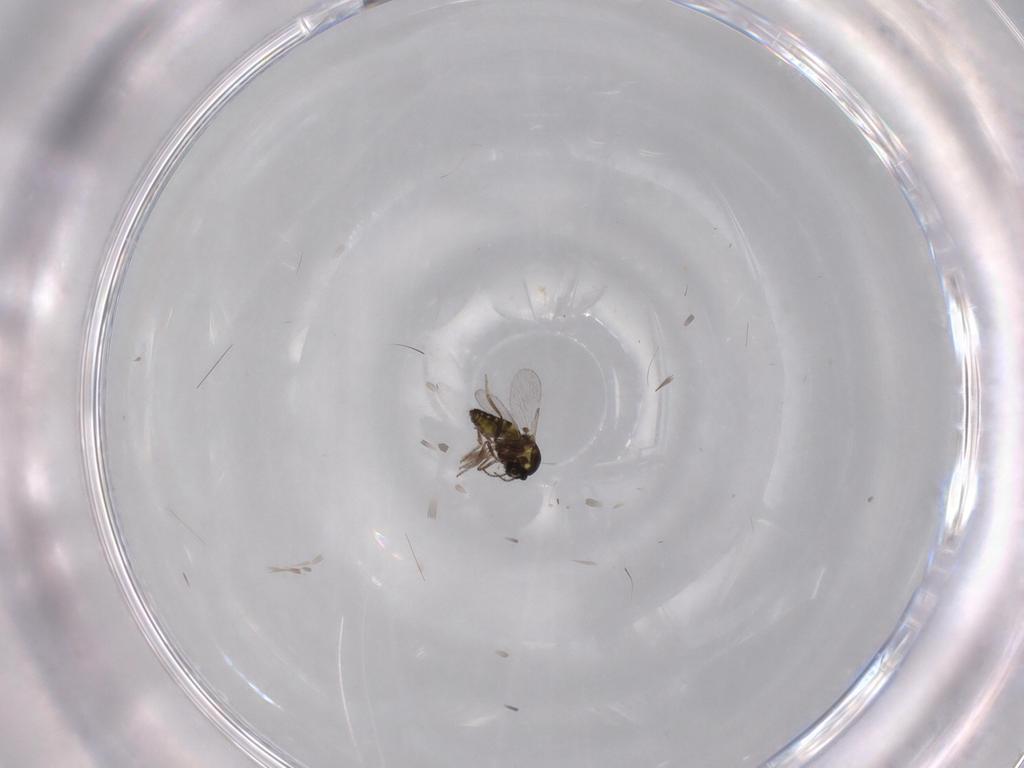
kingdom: Animalia
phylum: Arthropoda
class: Insecta
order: Diptera
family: Ceratopogonidae
